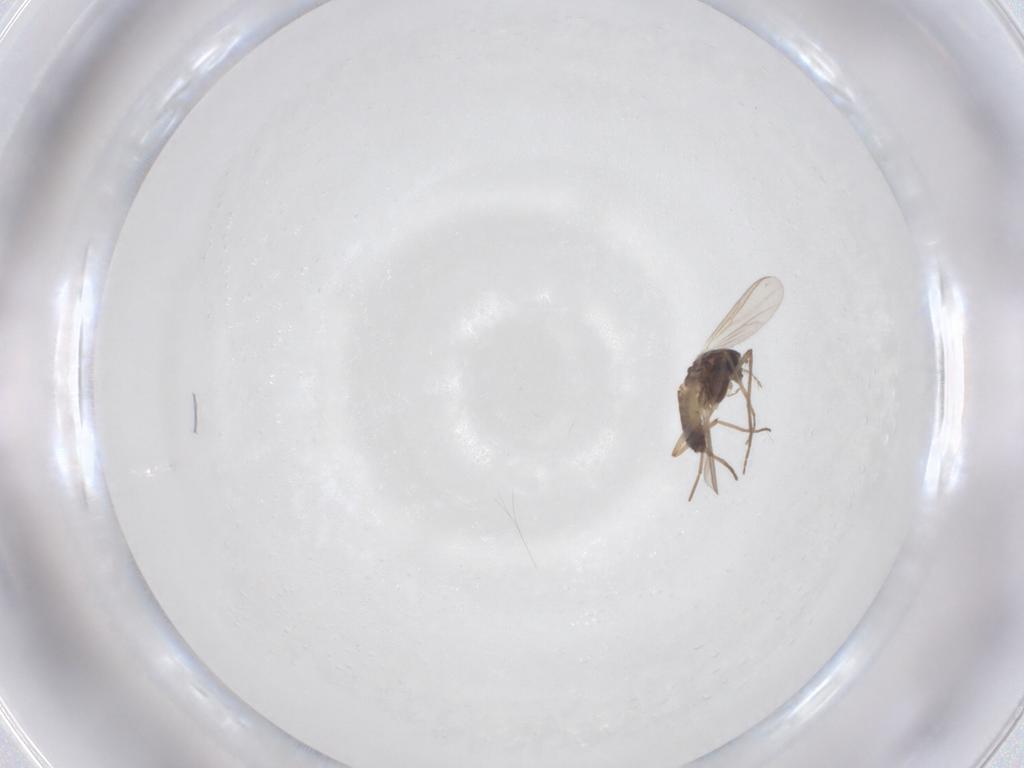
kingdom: Animalia
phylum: Arthropoda
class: Insecta
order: Diptera
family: Chironomidae
